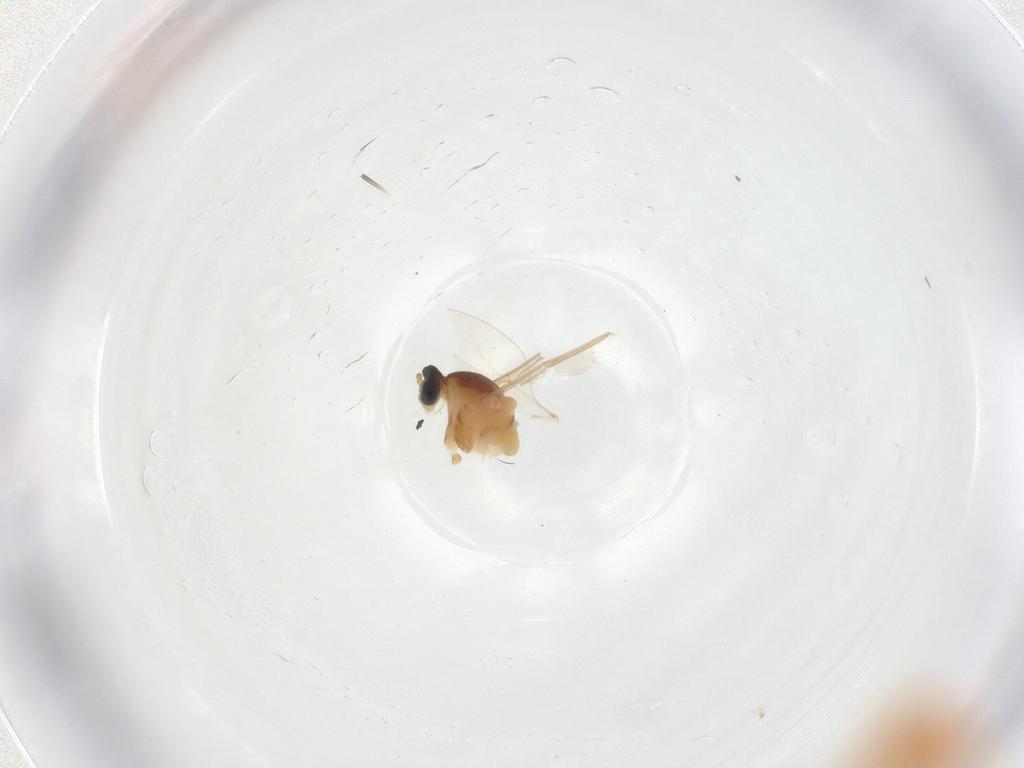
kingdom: Animalia
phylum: Arthropoda
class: Insecta
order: Diptera
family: Cecidomyiidae
